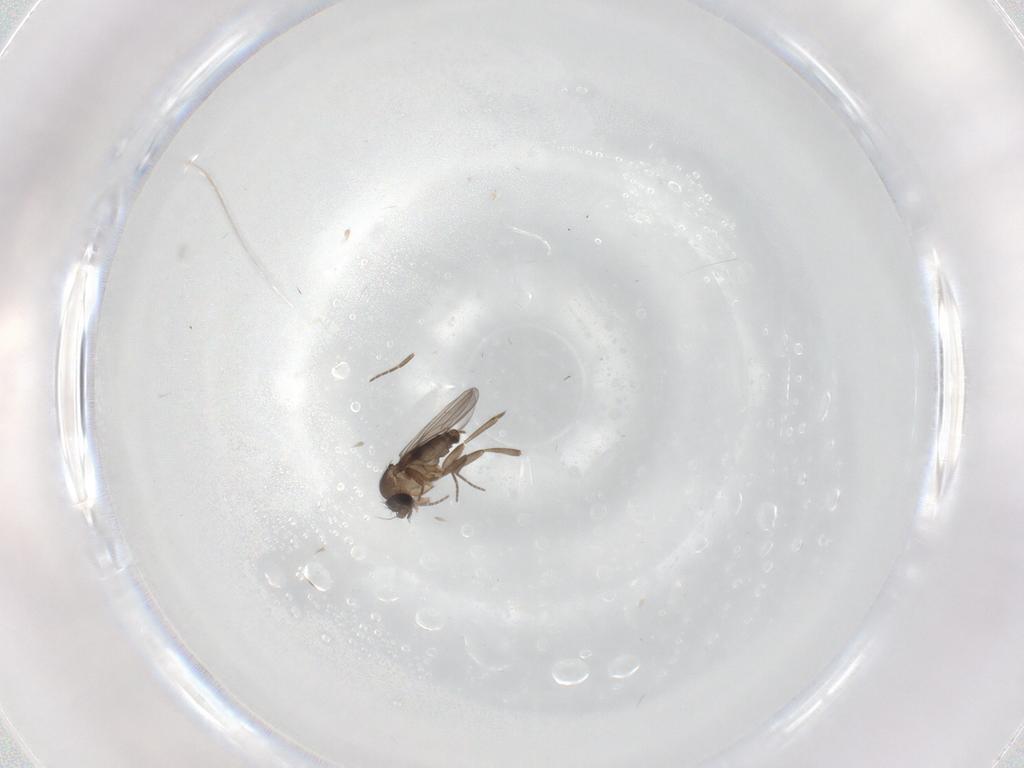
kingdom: Animalia
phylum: Arthropoda
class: Insecta
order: Diptera
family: Phoridae
